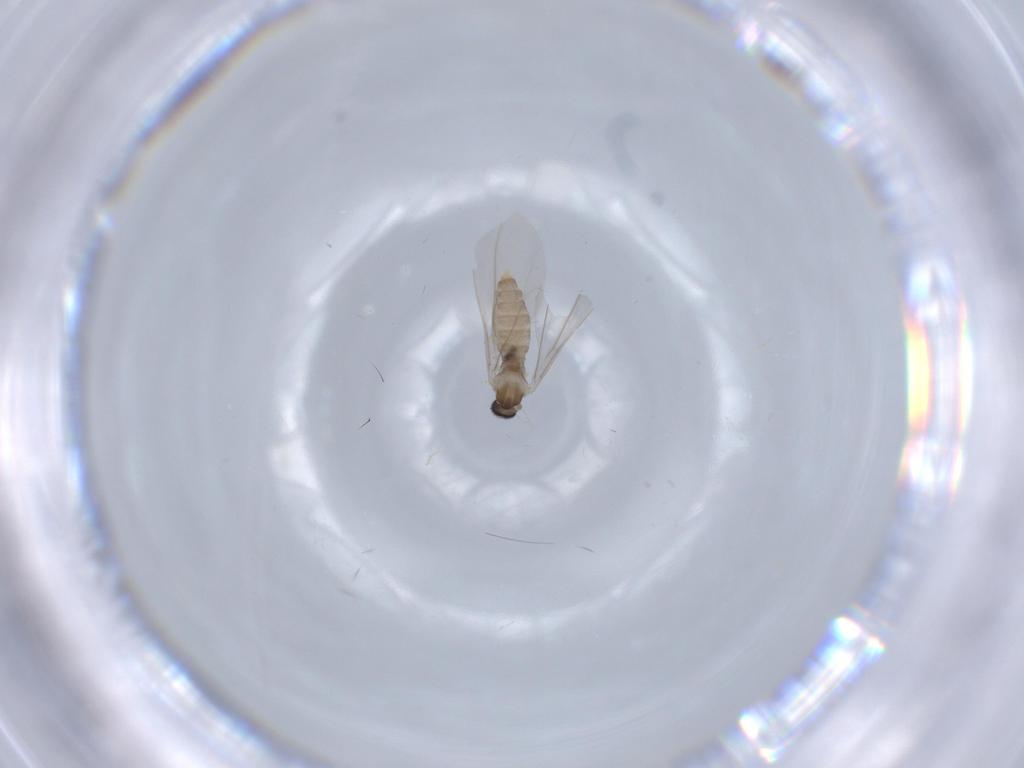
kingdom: Animalia
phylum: Arthropoda
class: Insecta
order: Diptera
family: Cecidomyiidae
